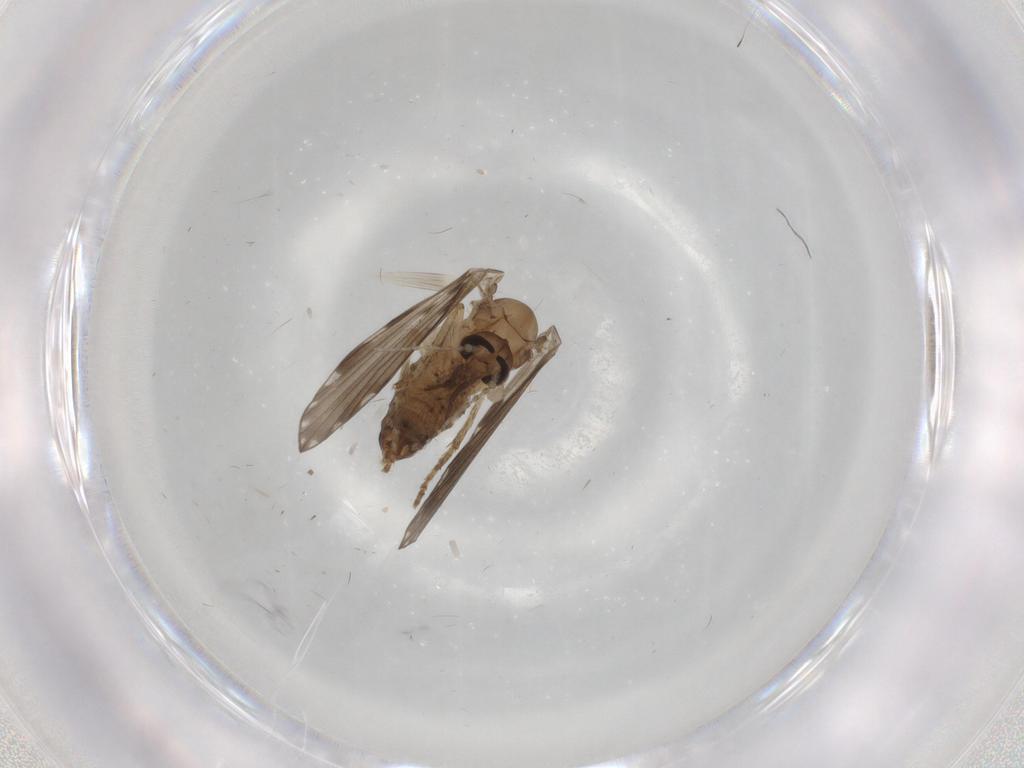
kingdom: Animalia
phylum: Arthropoda
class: Insecta
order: Diptera
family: Psychodidae
